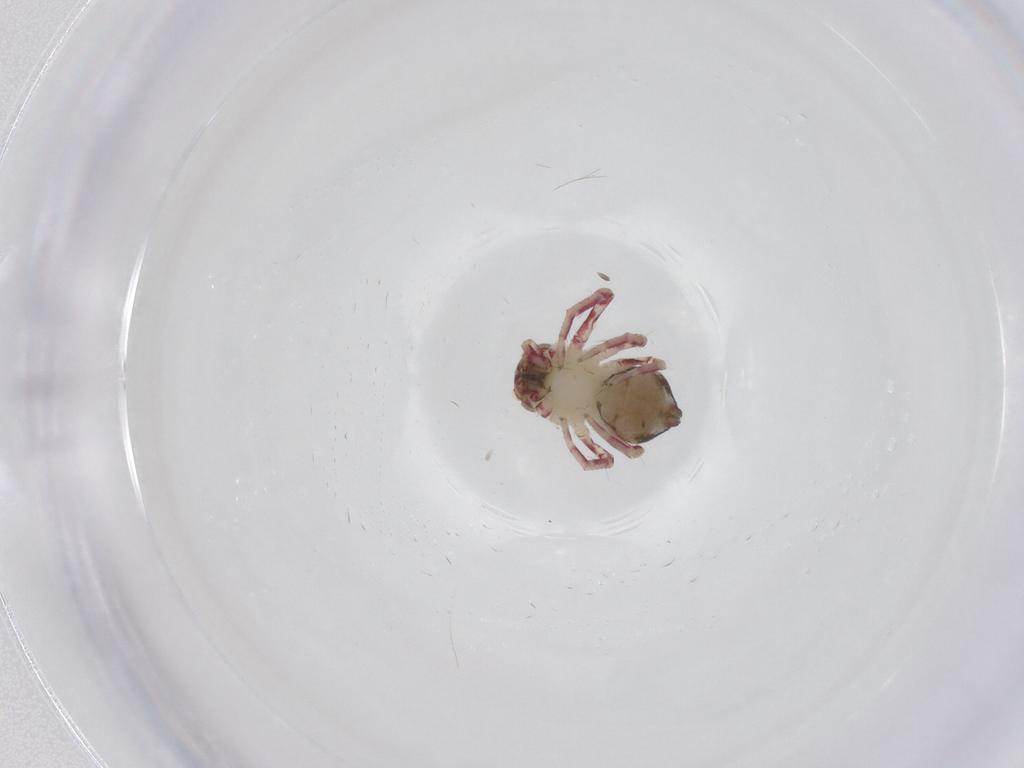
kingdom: Animalia
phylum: Arthropoda
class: Arachnida
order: Araneae
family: Thomisidae
